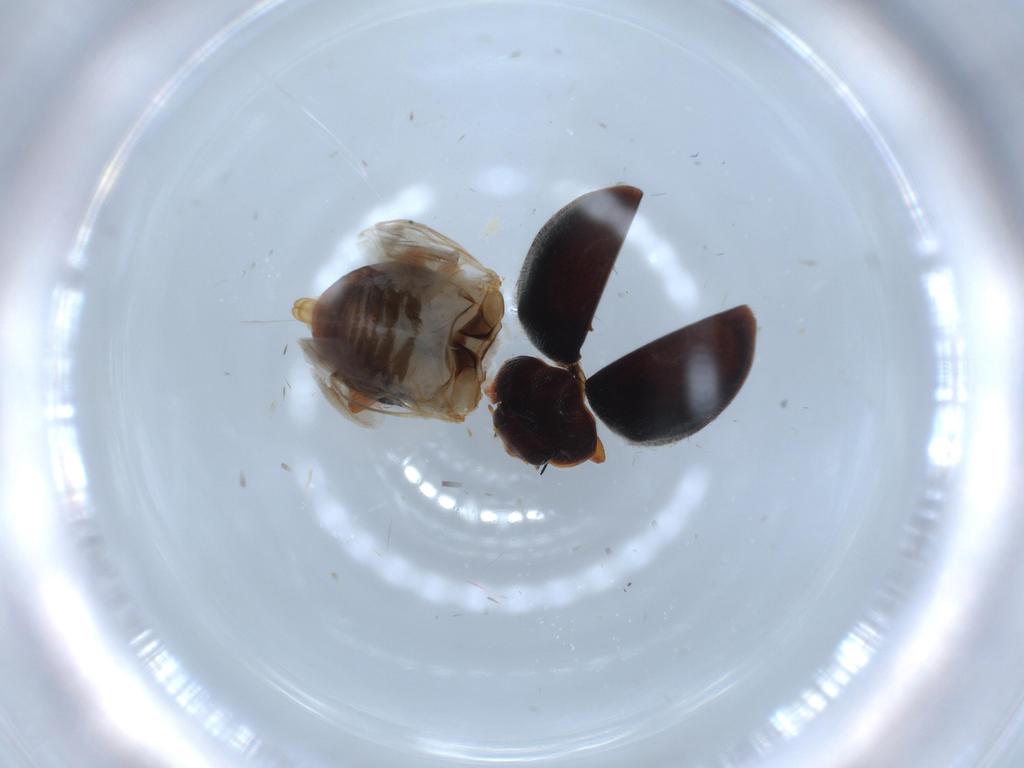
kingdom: Animalia
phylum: Arthropoda
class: Insecta
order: Coleoptera
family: Coccinellidae
